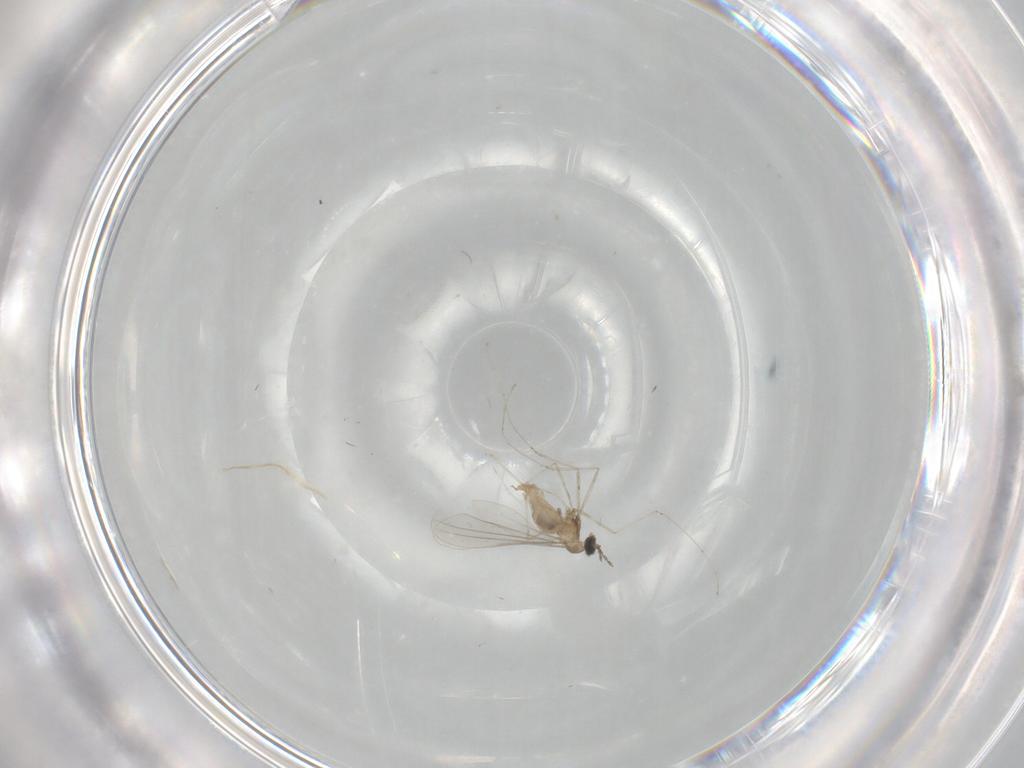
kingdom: Animalia
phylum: Arthropoda
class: Insecta
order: Diptera
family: Cecidomyiidae
